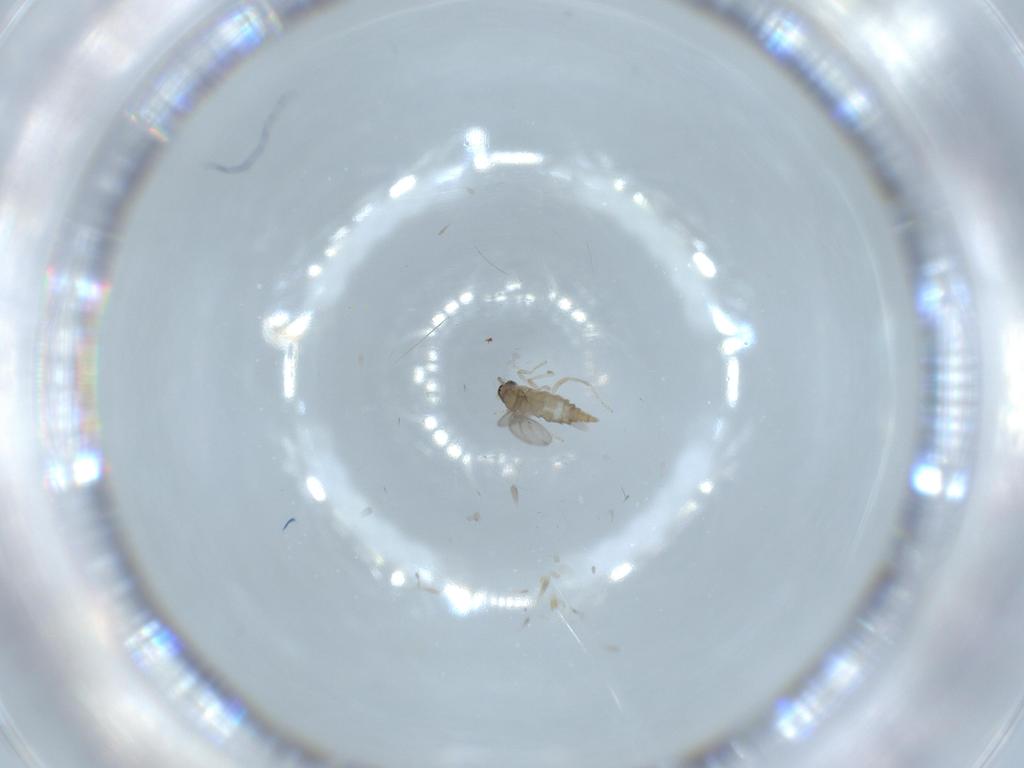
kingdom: Animalia
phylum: Arthropoda
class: Insecta
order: Diptera
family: Cecidomyiidae
